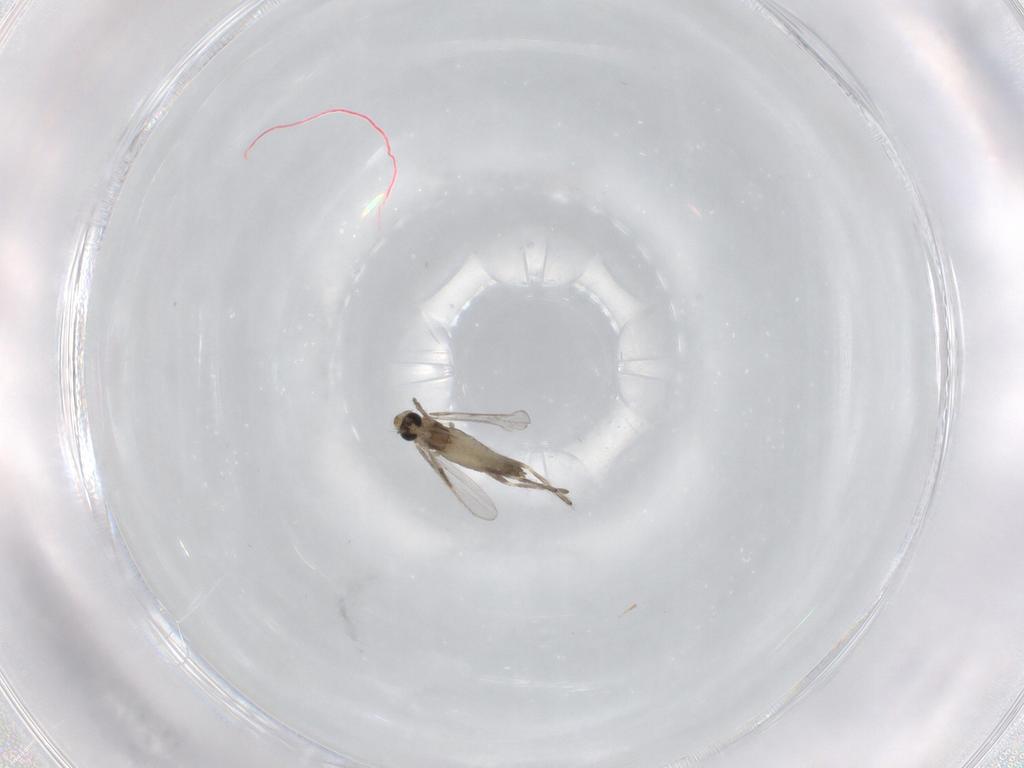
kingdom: Animalia
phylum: Arthropoda
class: Insecta
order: Diptera
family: Chironomidae
